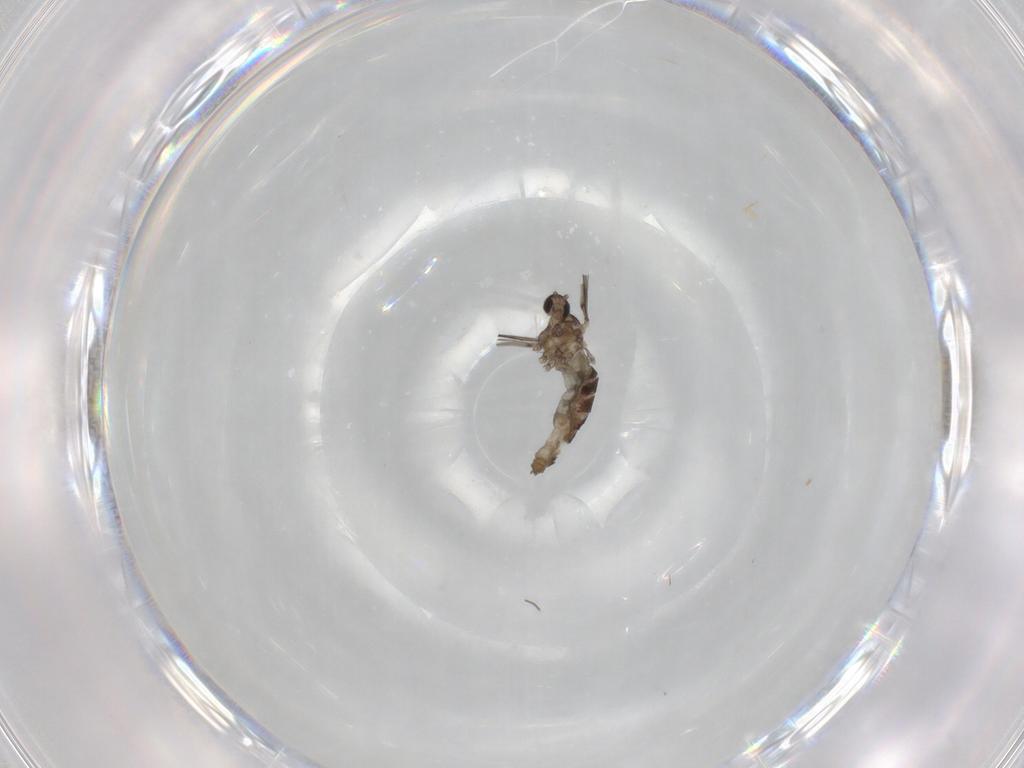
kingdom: Animalia
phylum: Arthropoda
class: Insecta
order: Diptera
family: Cecidomyiidae
